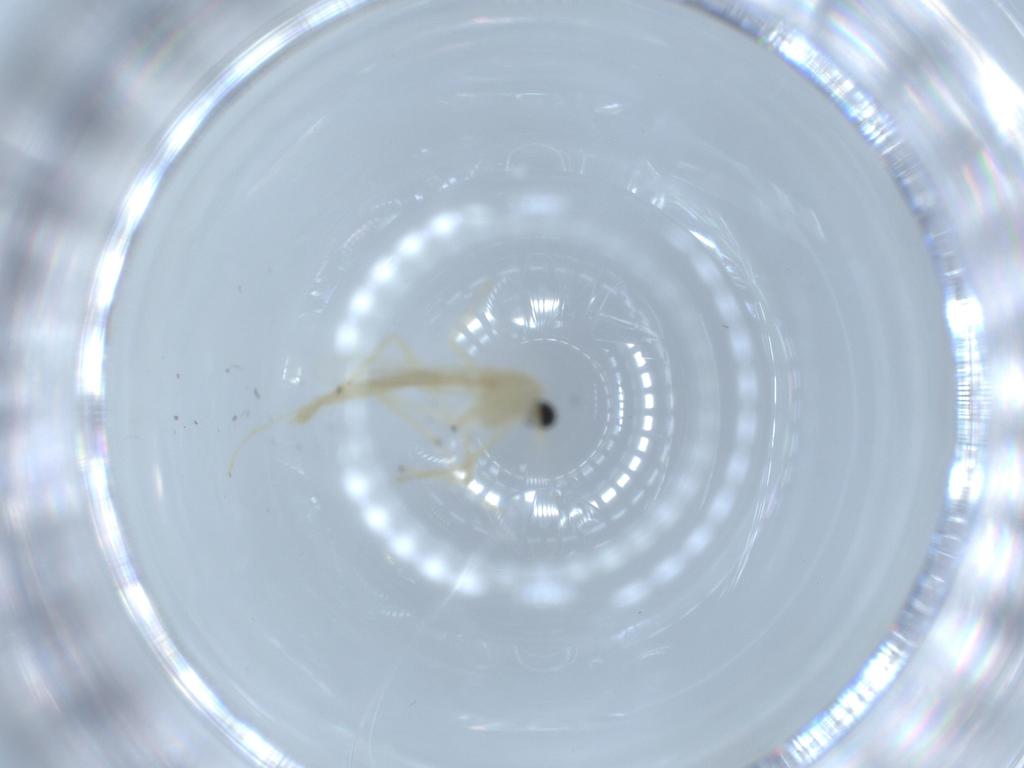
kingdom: Animalia
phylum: Arthropoda
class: Insecta
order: Diptera
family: Chironomidae
